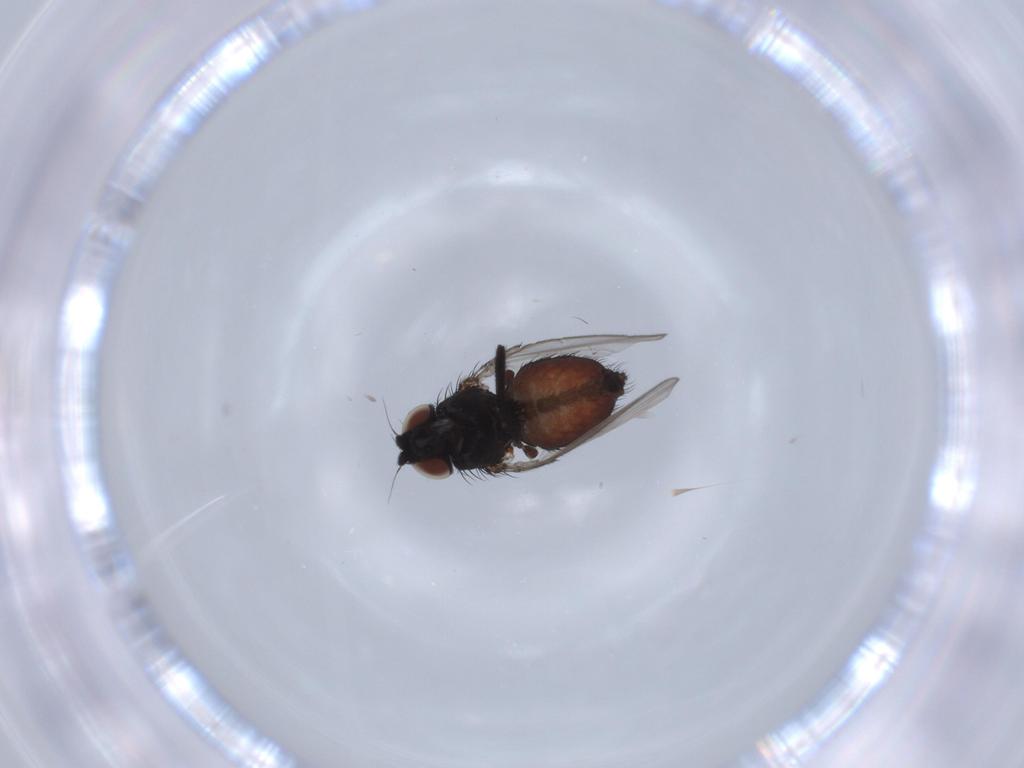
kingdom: Animalia
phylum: Arthropoda
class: Insecta
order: Diptera
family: Milichiidae
